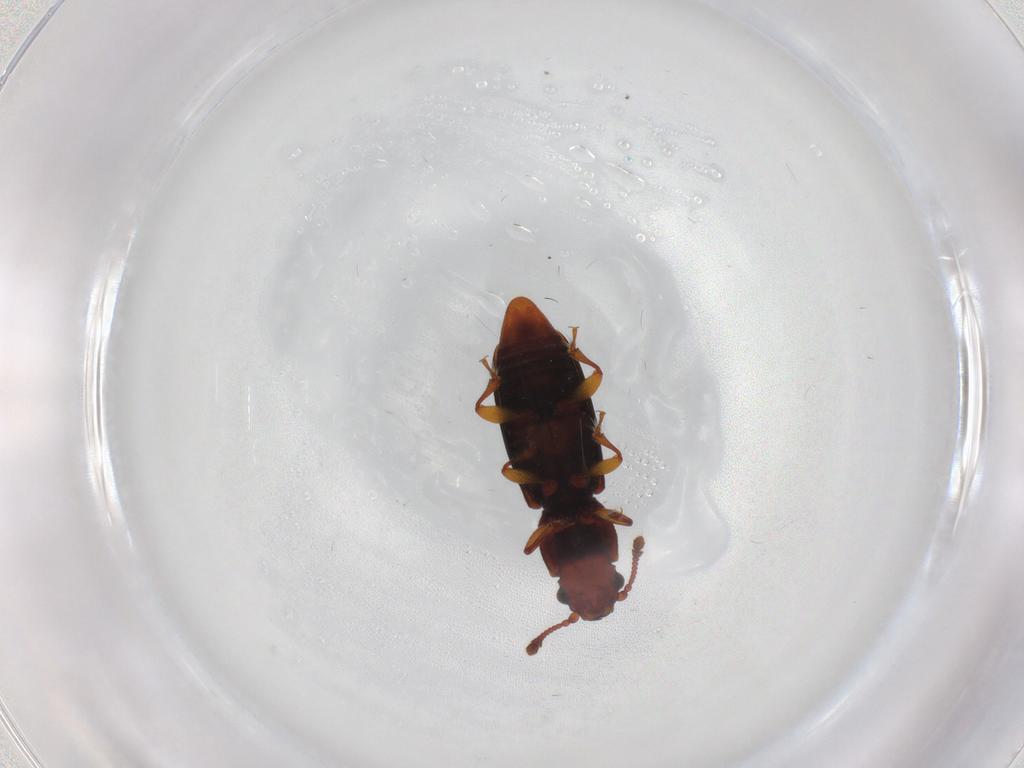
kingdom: Animalia
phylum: Arthropoda
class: Insecta
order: Coleoptera
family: Monotomidae
